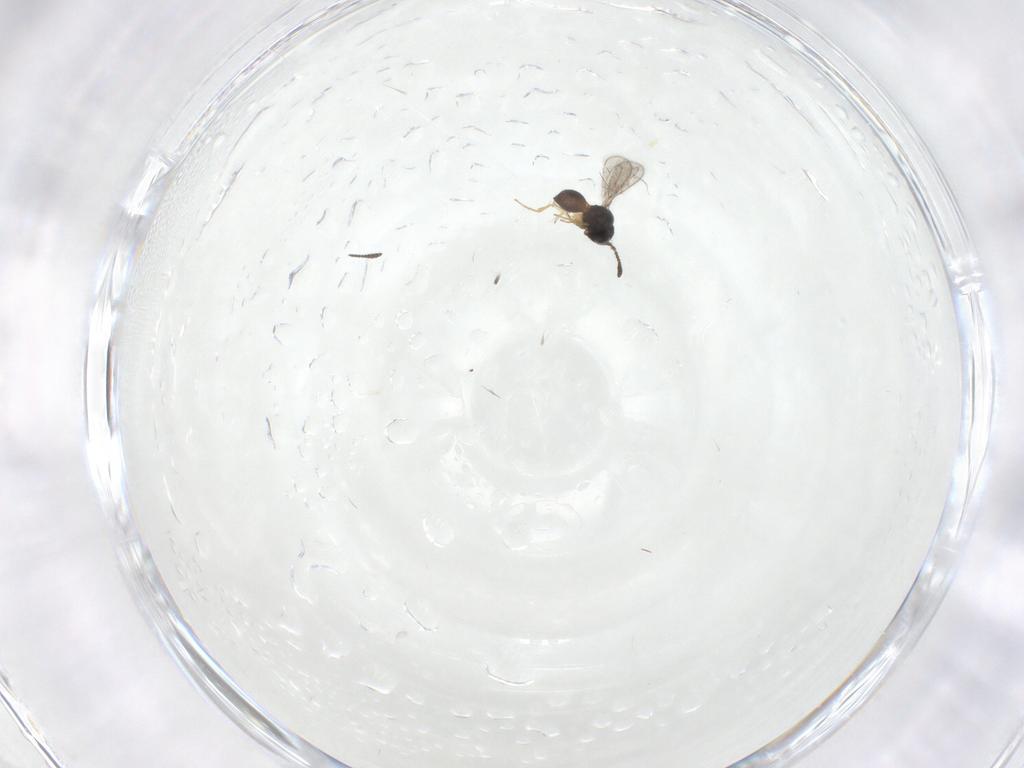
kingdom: Animalia
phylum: Arthropoda
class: Insecta
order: Hymenoptera
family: Scelionidae
